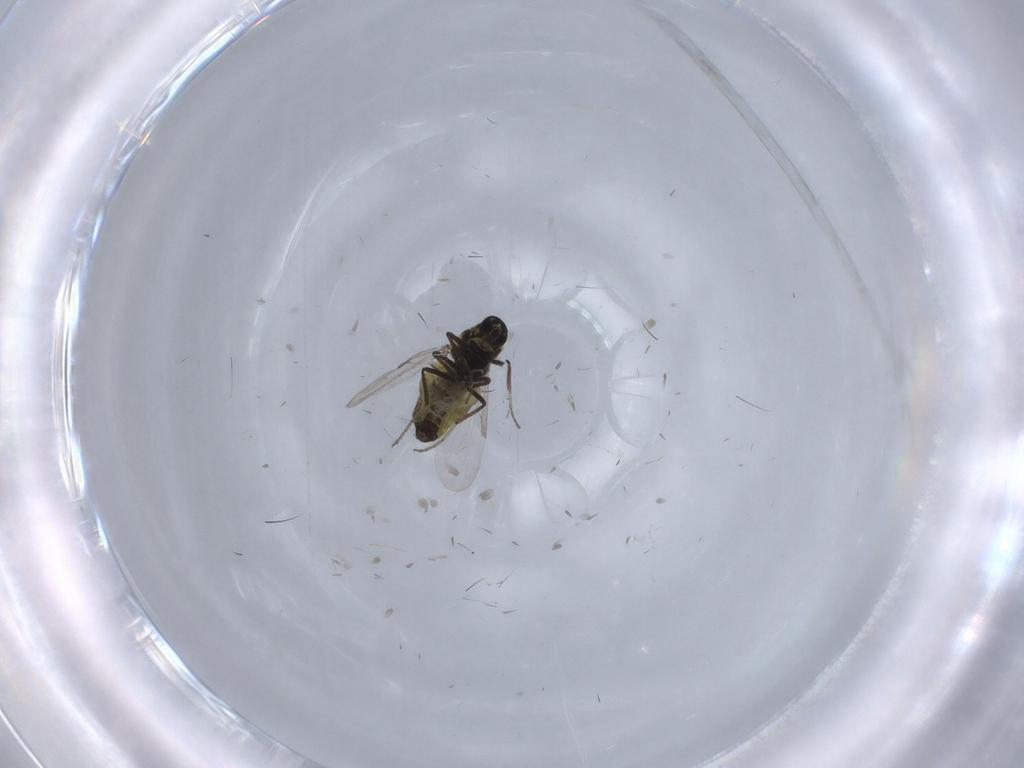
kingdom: Animalia
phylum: Arthropoda
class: Insecta
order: Diptera
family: Ceratopogonidae
